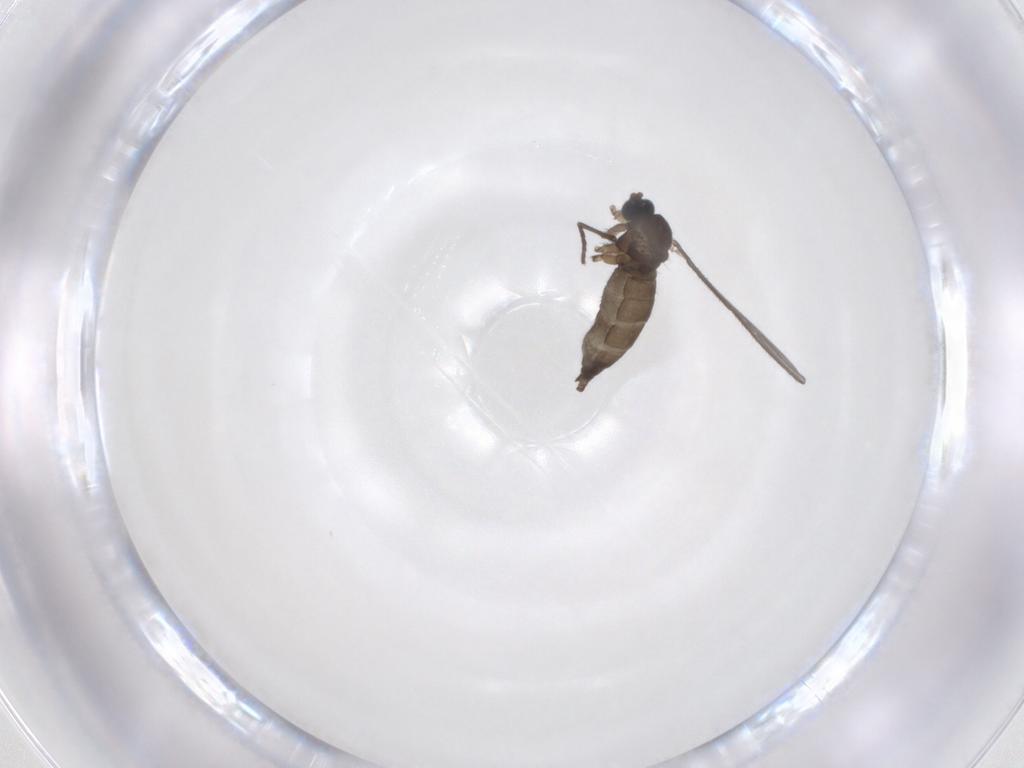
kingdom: Animalia
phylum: Arthropoda
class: Insecta
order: Diptera
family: Sciaridae
